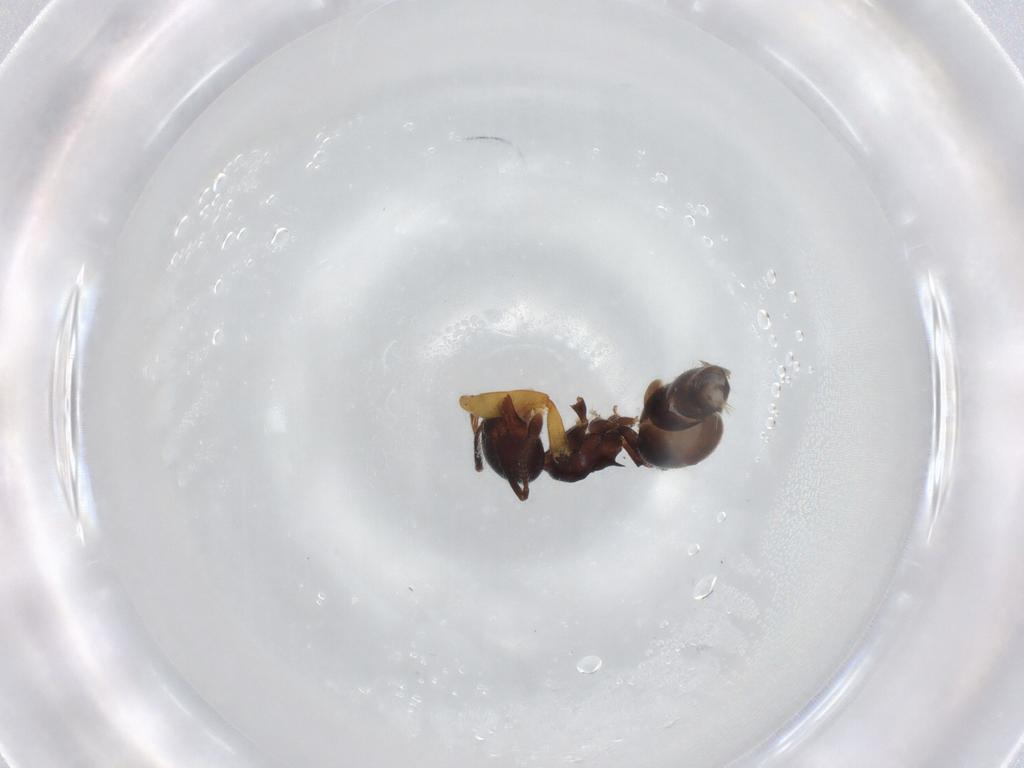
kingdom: Animalia
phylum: Arthropoda
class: Insecta
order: Hymenoptera
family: Formicidae
